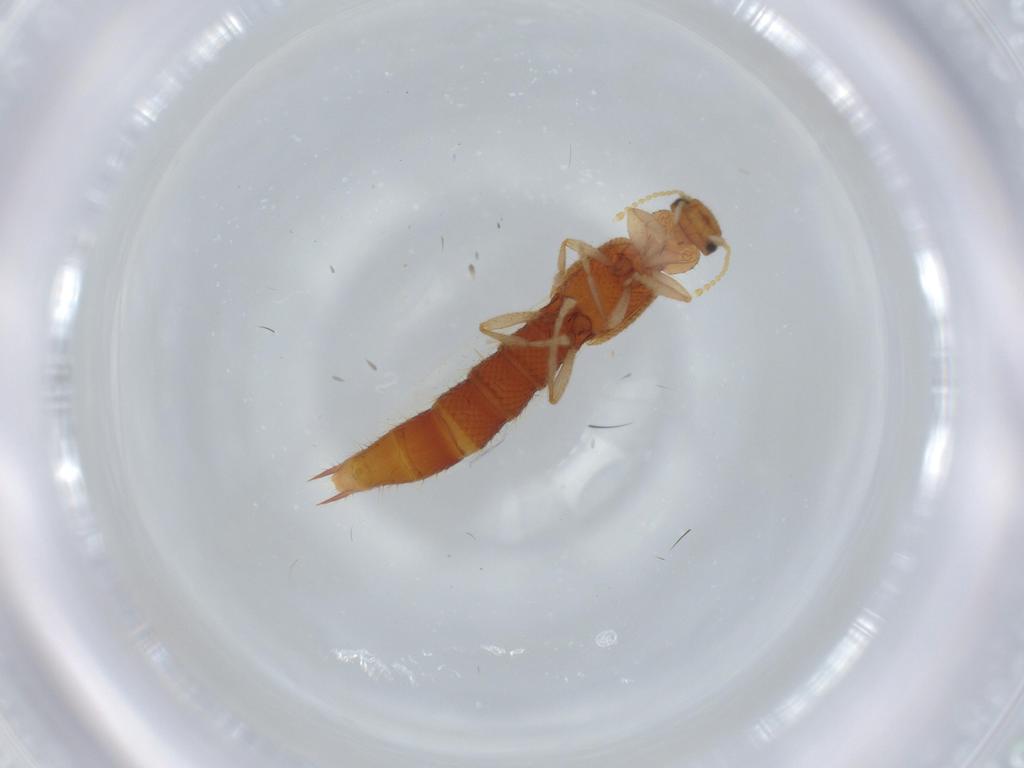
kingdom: Animalia
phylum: Arthropoda
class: Insecta
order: Coleoptera
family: Staphylinidae
